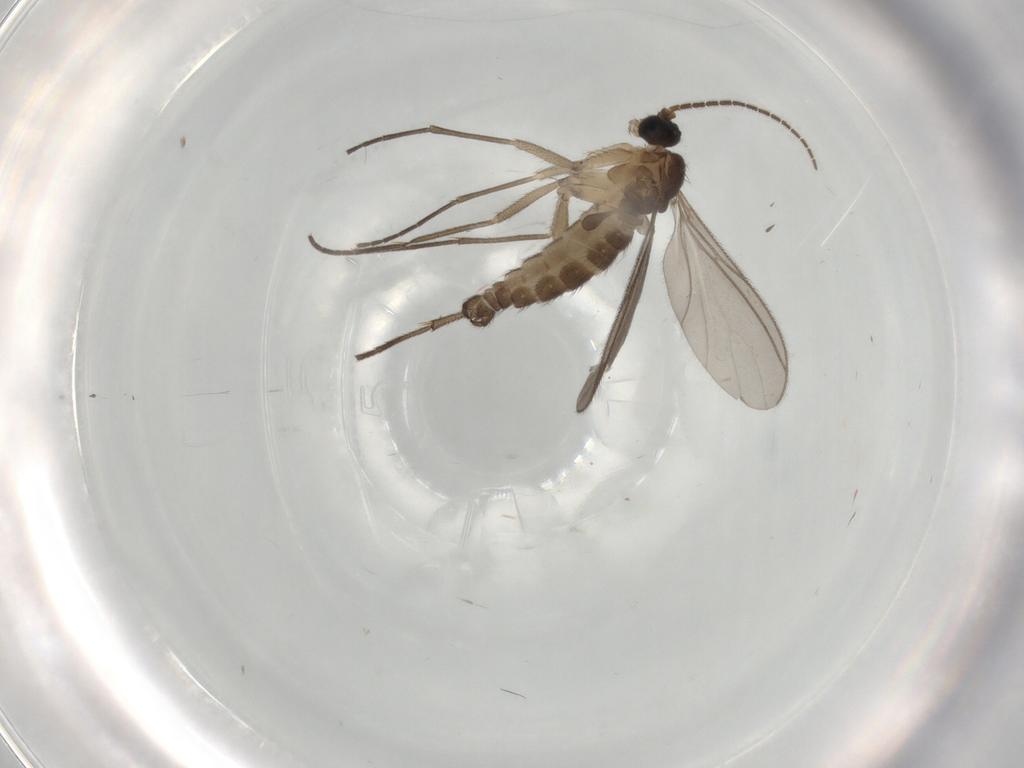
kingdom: Animalia
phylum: Arthropoda
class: Insecta
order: Diptera
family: Sciaridae
